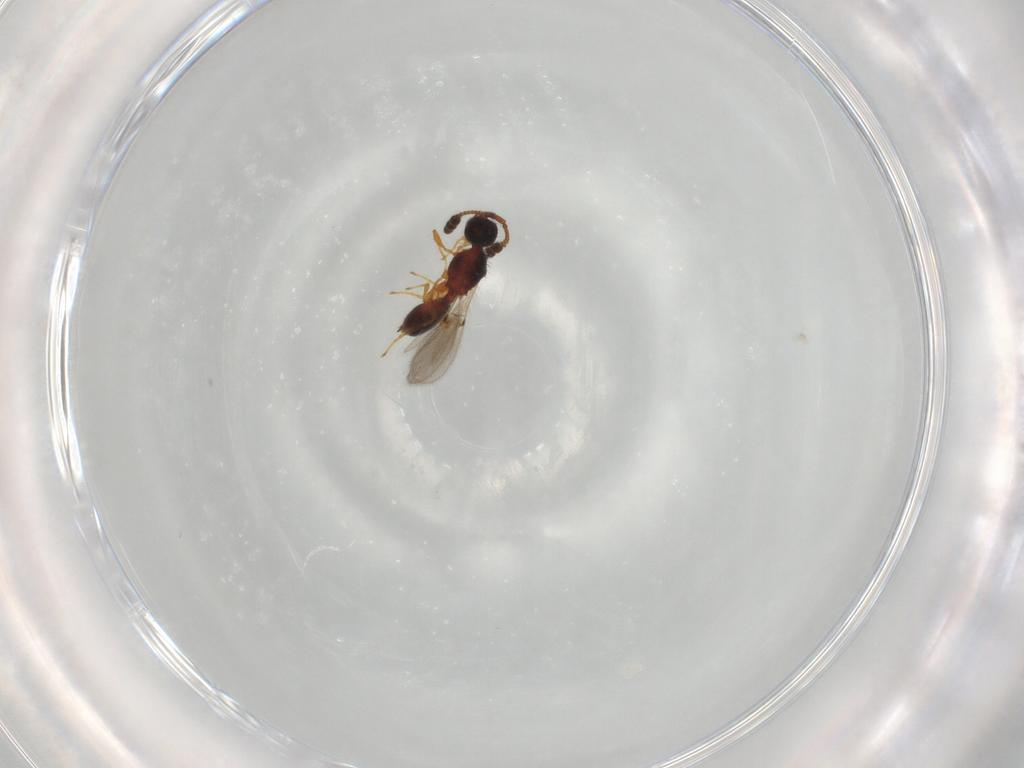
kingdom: Animalia
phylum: Arthropoda
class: Insecta
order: Hymenoptera
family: Diapriidae
